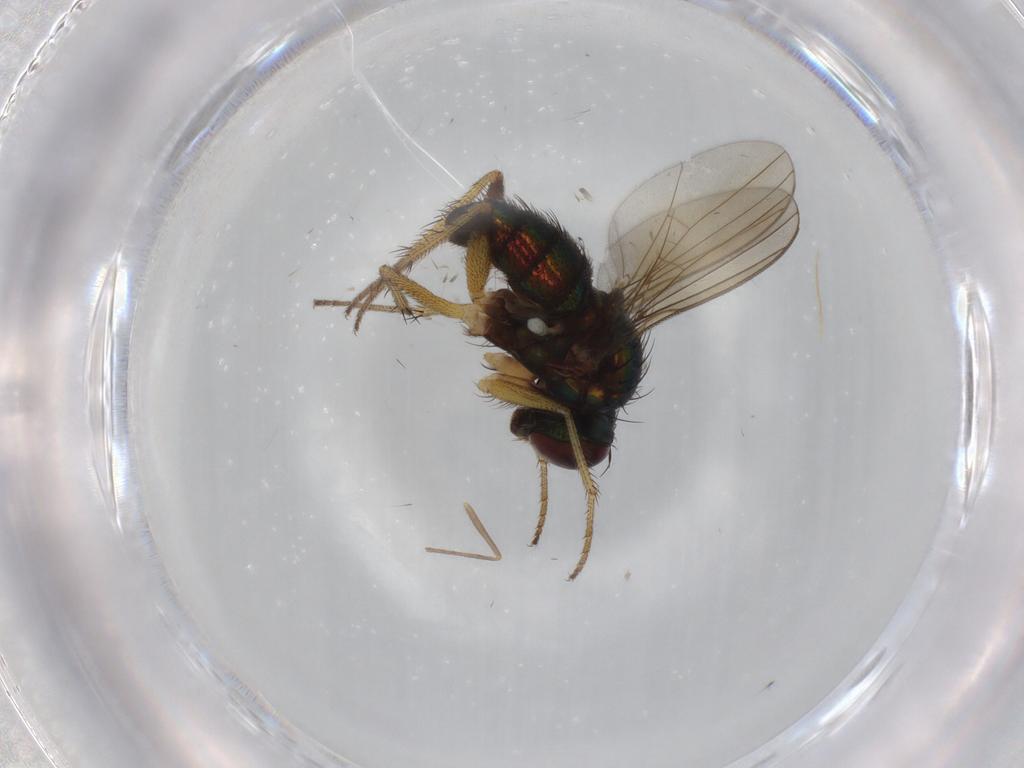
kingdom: Animalia
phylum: Arthropoda
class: Insecta
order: Diptera
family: Dolichopodidae
